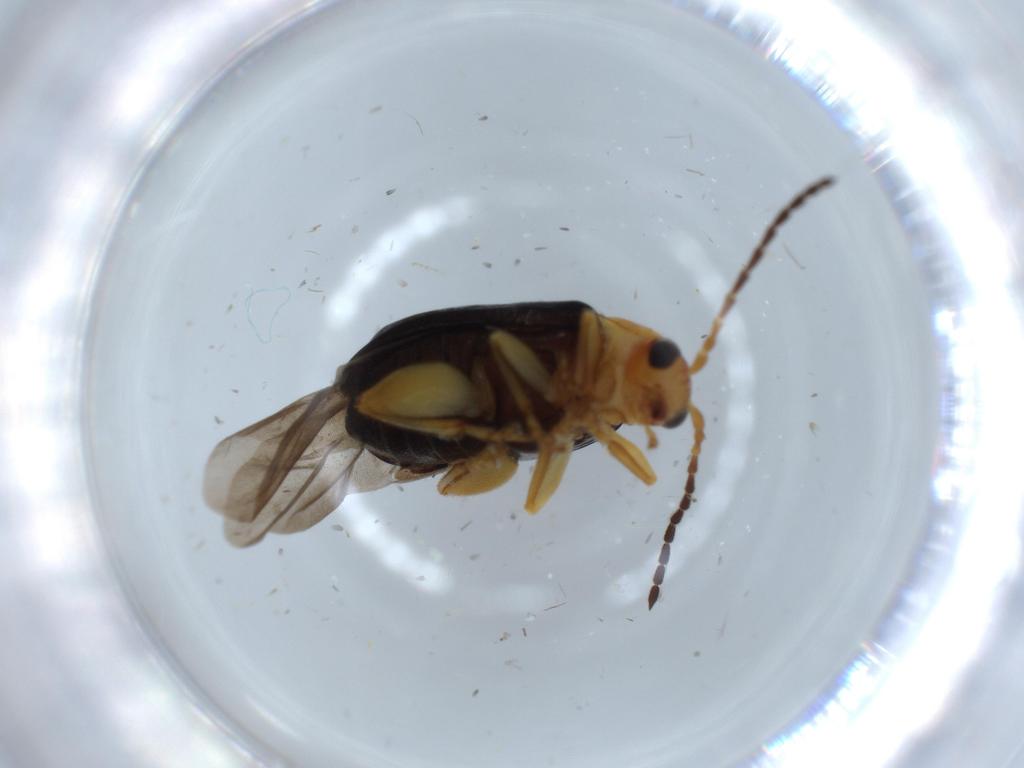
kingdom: Animalia
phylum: Arthropoda
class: Insecta
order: Coleoptera
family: Chrysomelidae
